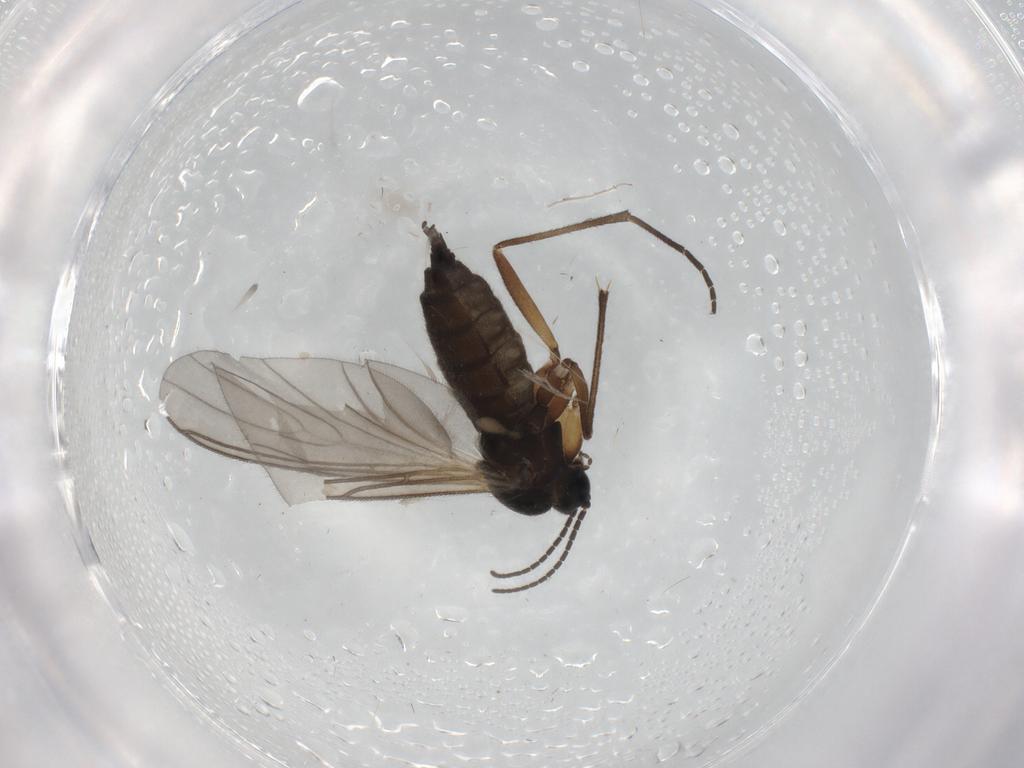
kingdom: Animalia
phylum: Arthropoda
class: Insecta
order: Diptera
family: Sciaridae
